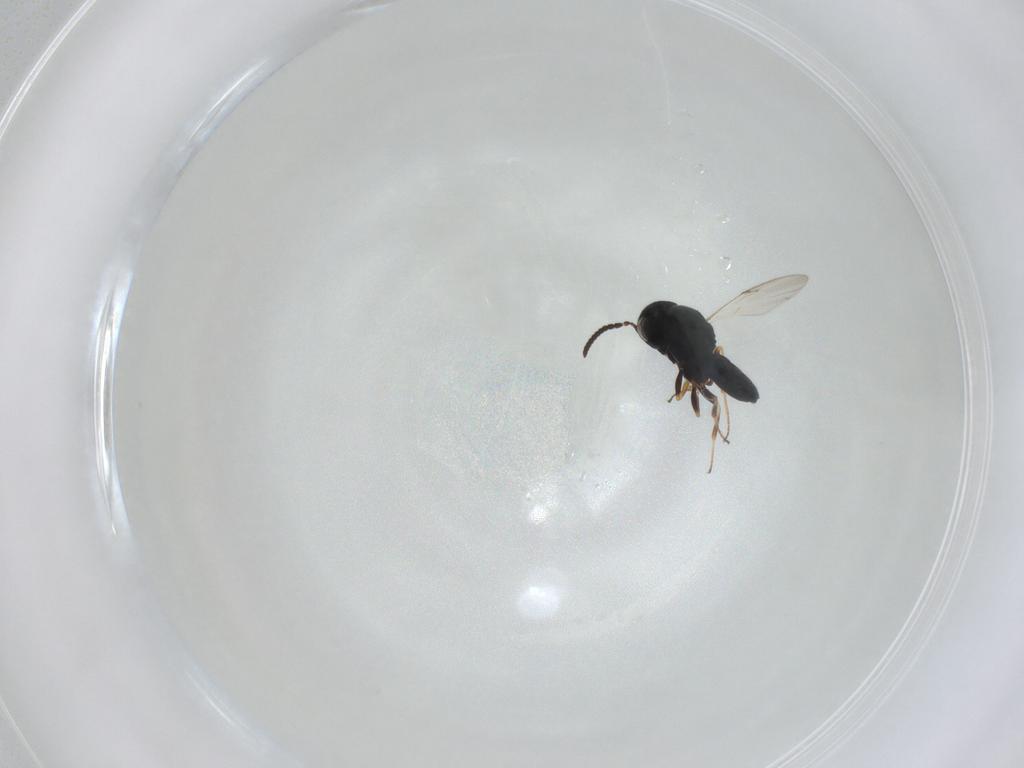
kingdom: Animalia
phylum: Arthropoda
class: Insecta
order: Hymenoptera
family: Scelionidae
